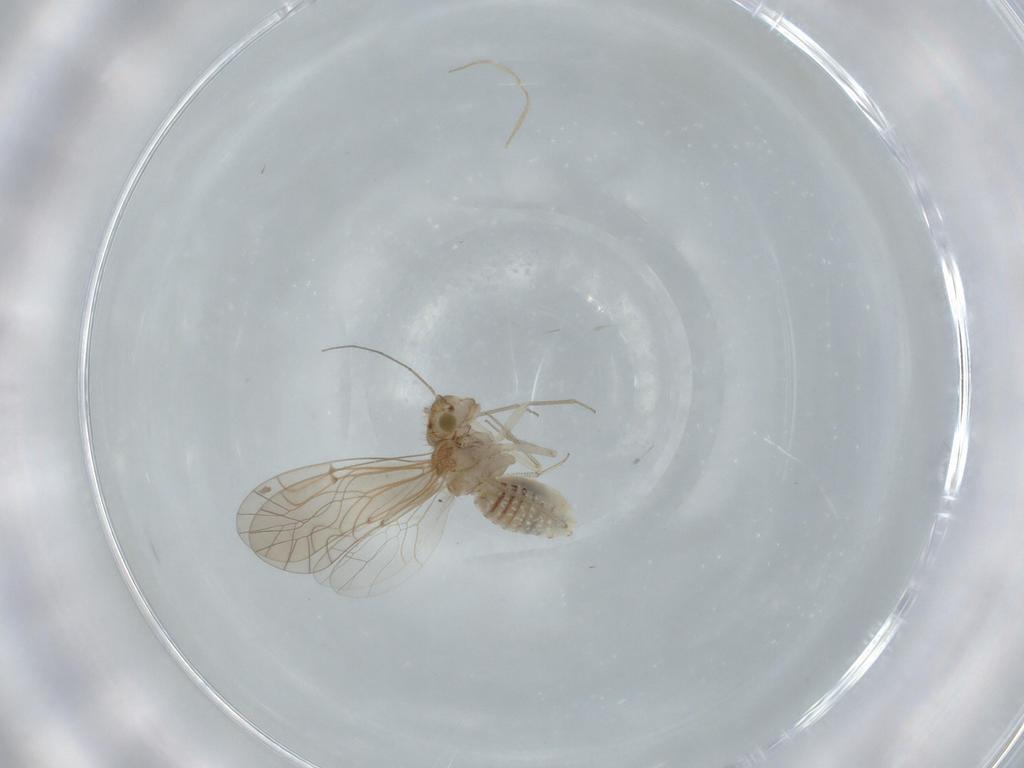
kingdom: Animalia
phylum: Arthropoda
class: Insecta
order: Psocodea
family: Lachesillidae
